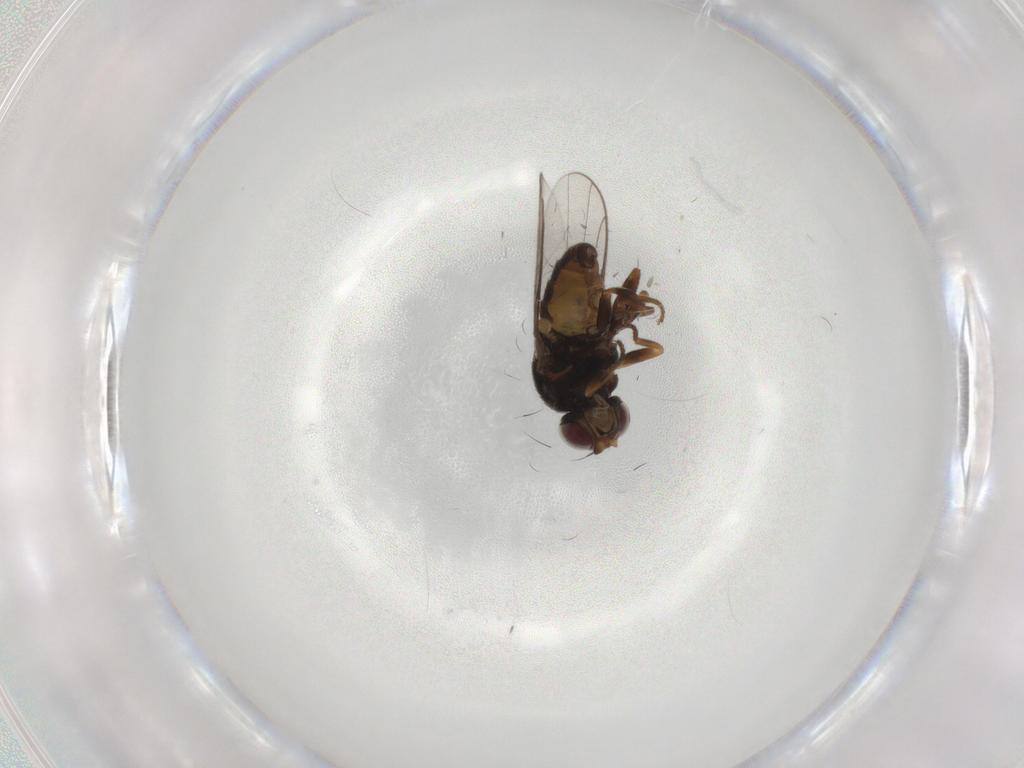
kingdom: Animalia
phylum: Arthropoda
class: Insecta
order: Diptera
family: Chloropidae
